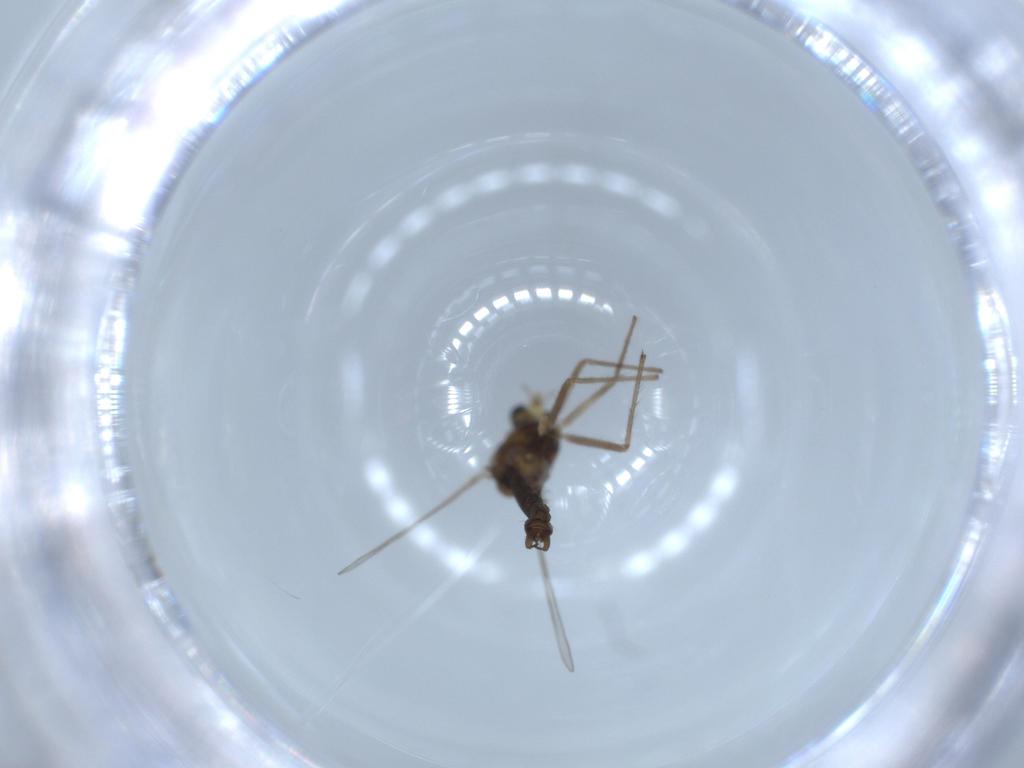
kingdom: Animalia
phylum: Arthropoda
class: Insecta
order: Diptera
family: Chironomidae
